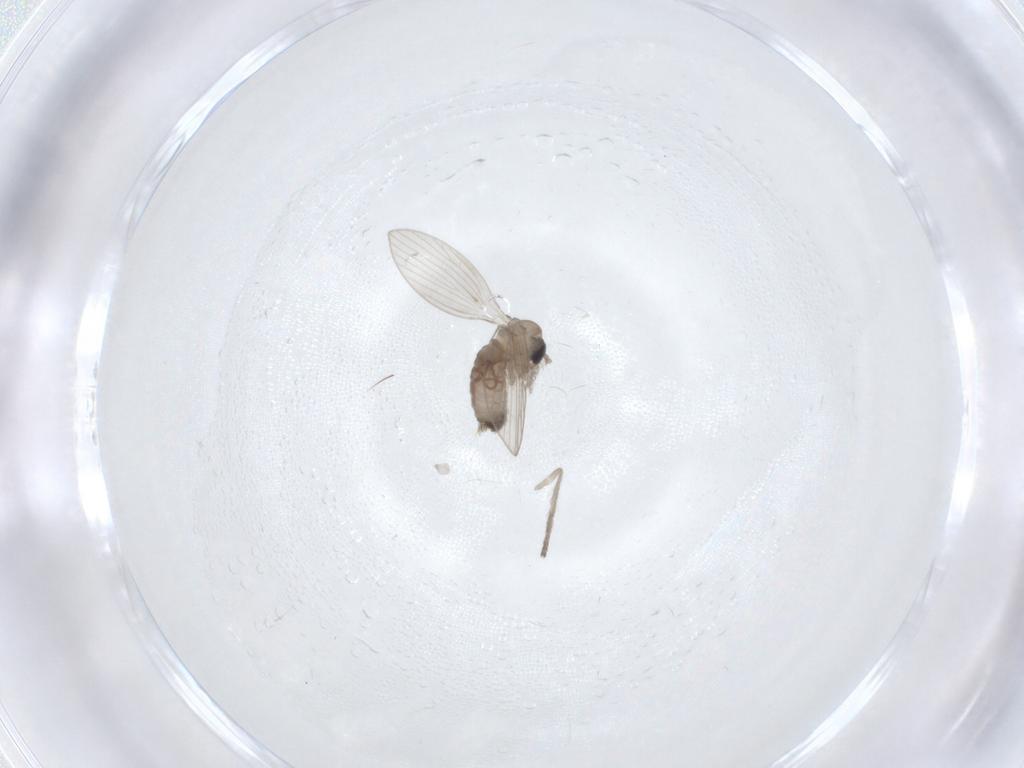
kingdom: Animalia
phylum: Arthropoda
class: Insecta
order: Diptera
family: Psychodidae
